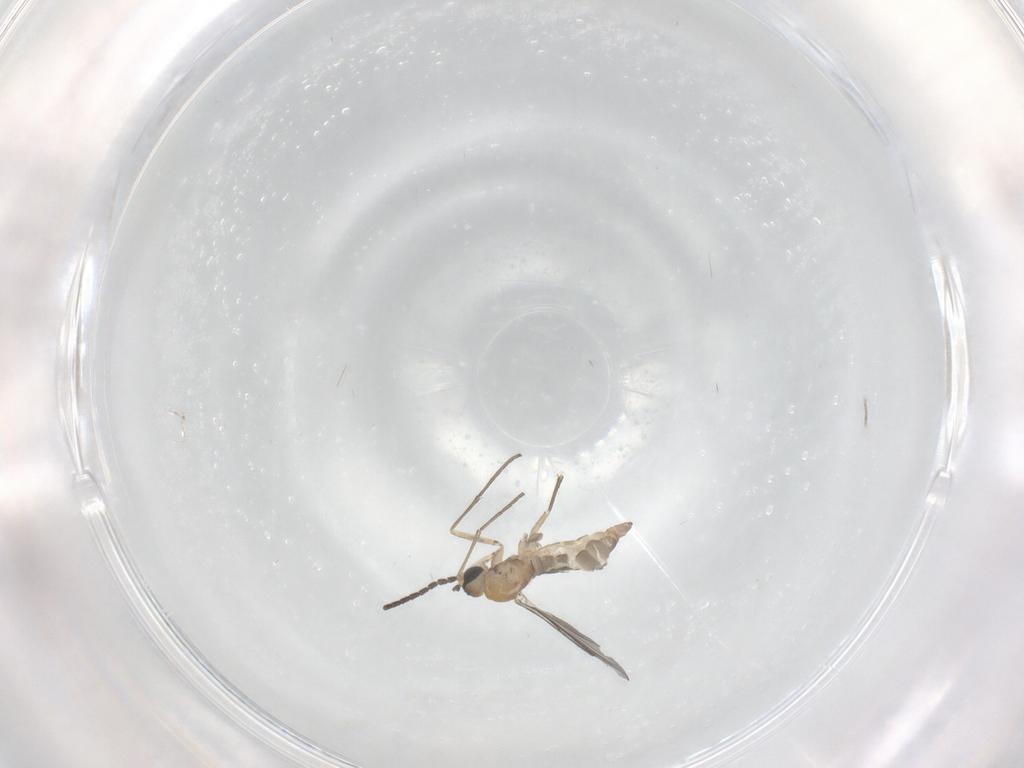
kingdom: Animalia
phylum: Arthropoda
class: Insecta
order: Diptera
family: Sciaridae
